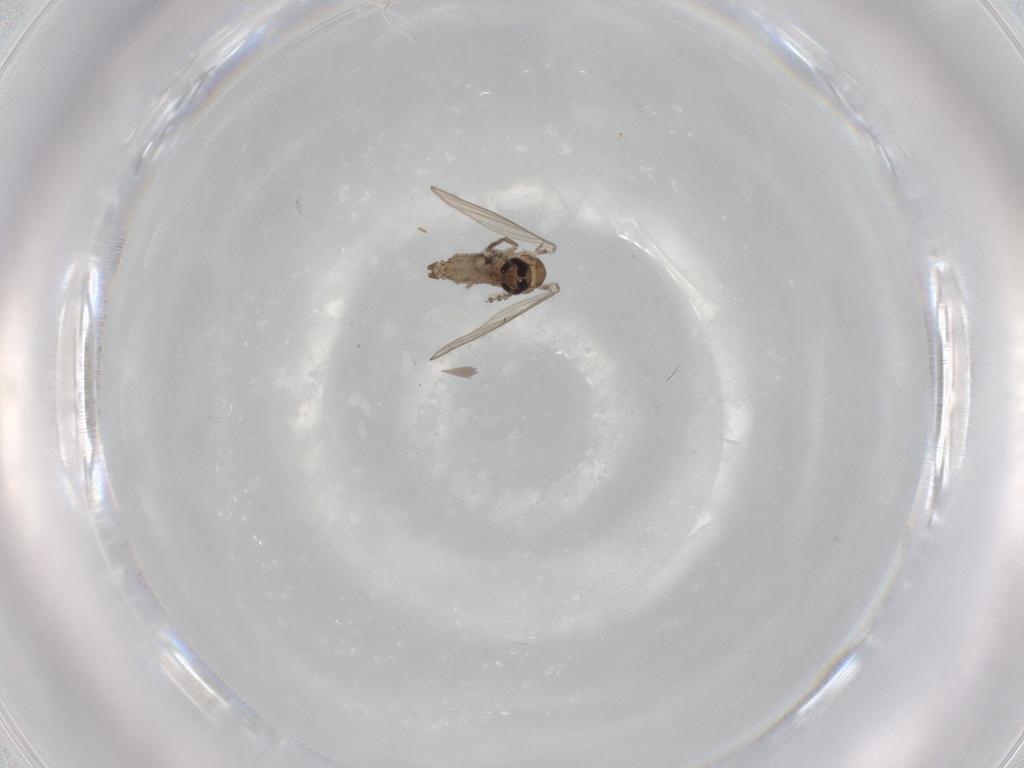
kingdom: Animalia
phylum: Arthropoda
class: Insecta
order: Diptera
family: Psychodidae
